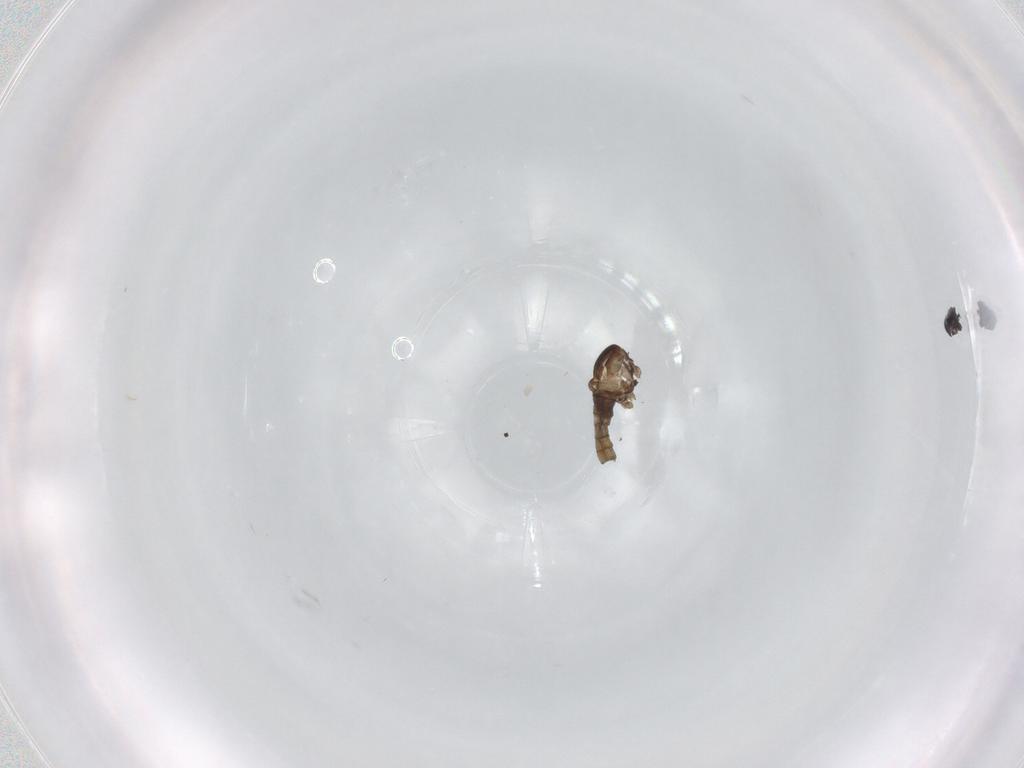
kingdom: Animalia
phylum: Arthropoda
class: Insecta
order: Diptera
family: Cecidomyiidae
